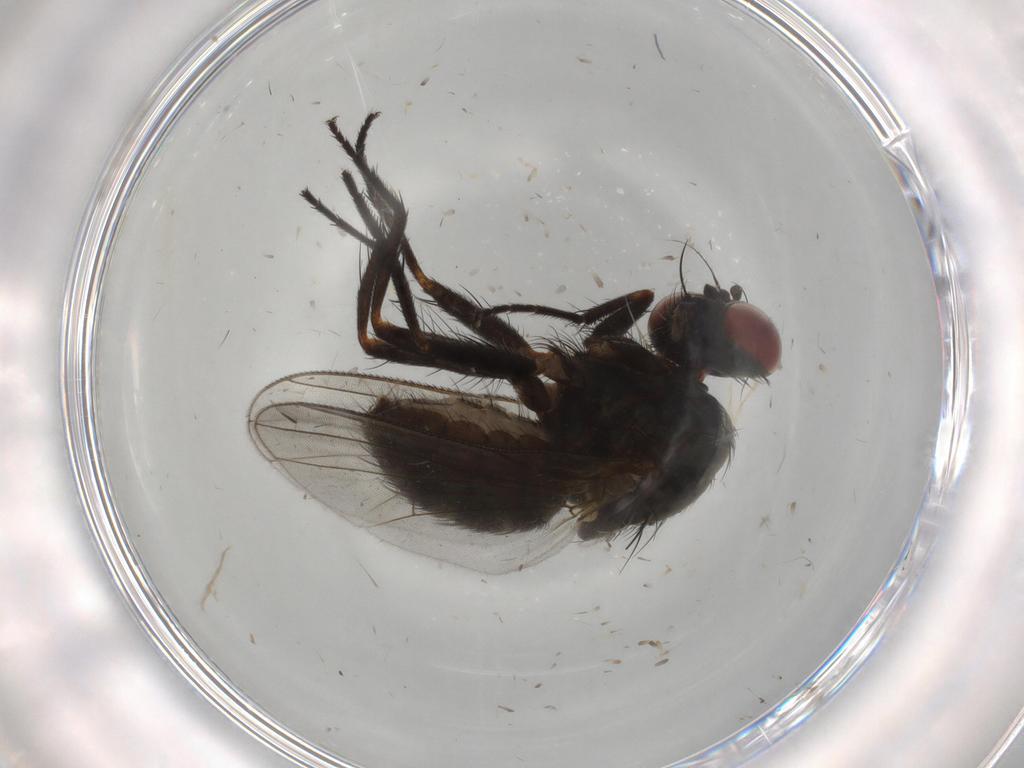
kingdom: Animalia
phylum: Arthropoda
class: Insecta
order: Diptera
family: Muscidae
